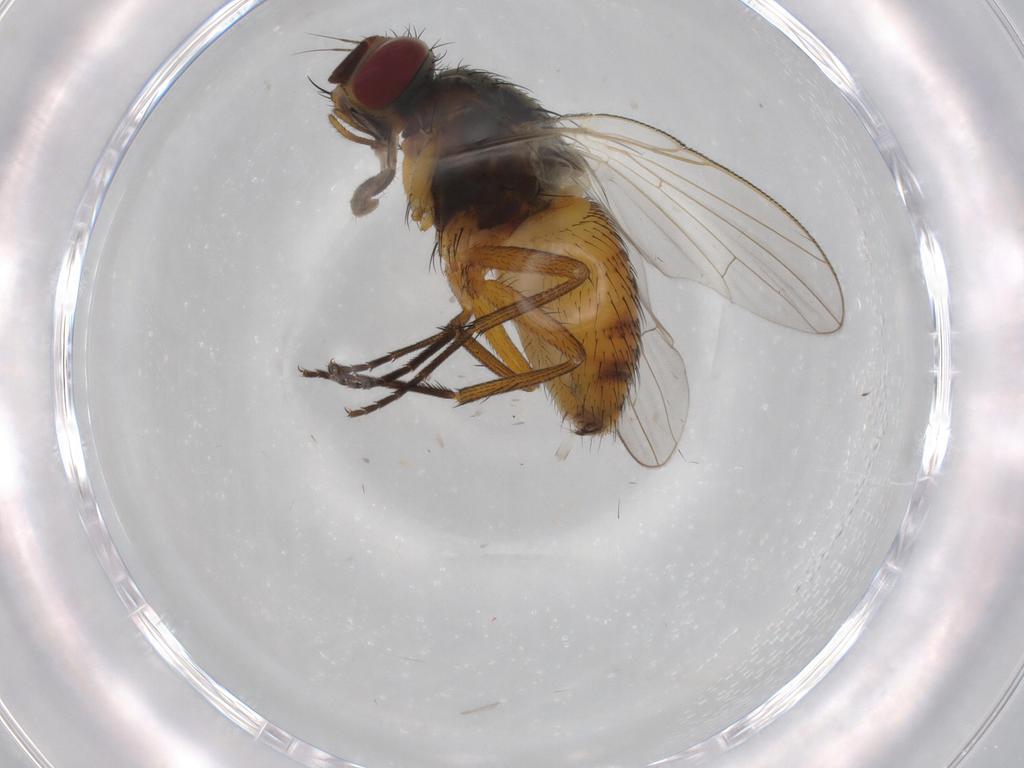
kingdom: Animalia
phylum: Arthropoda
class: Insecta
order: Diptera
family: Muscidae
